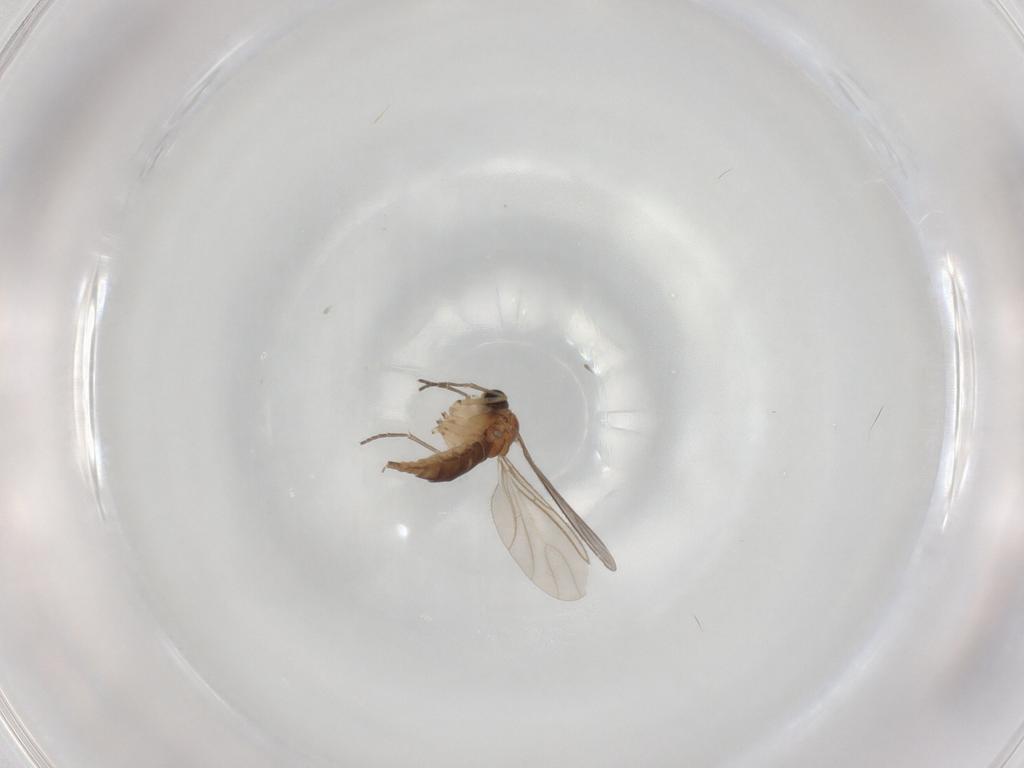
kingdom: Animalia
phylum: Arthropoda
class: Insecta
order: Diptera
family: Sciaridae
